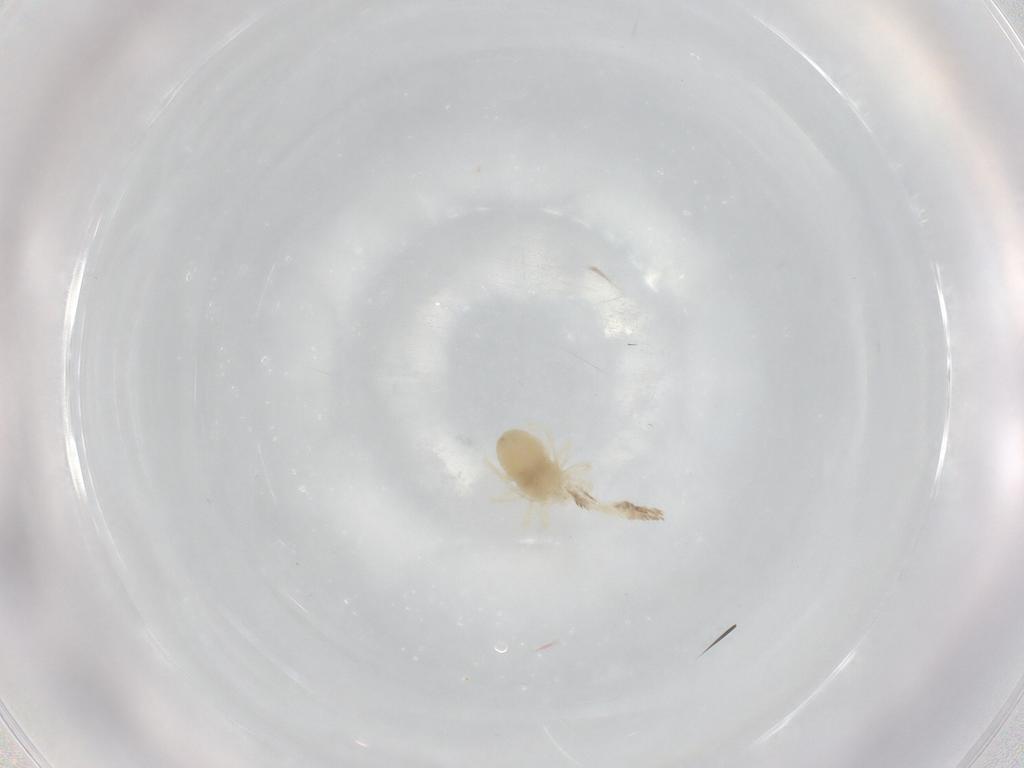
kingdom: Animalia
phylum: Arthropoda
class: Arachnida
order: Trombidiformes
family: Anystidae
